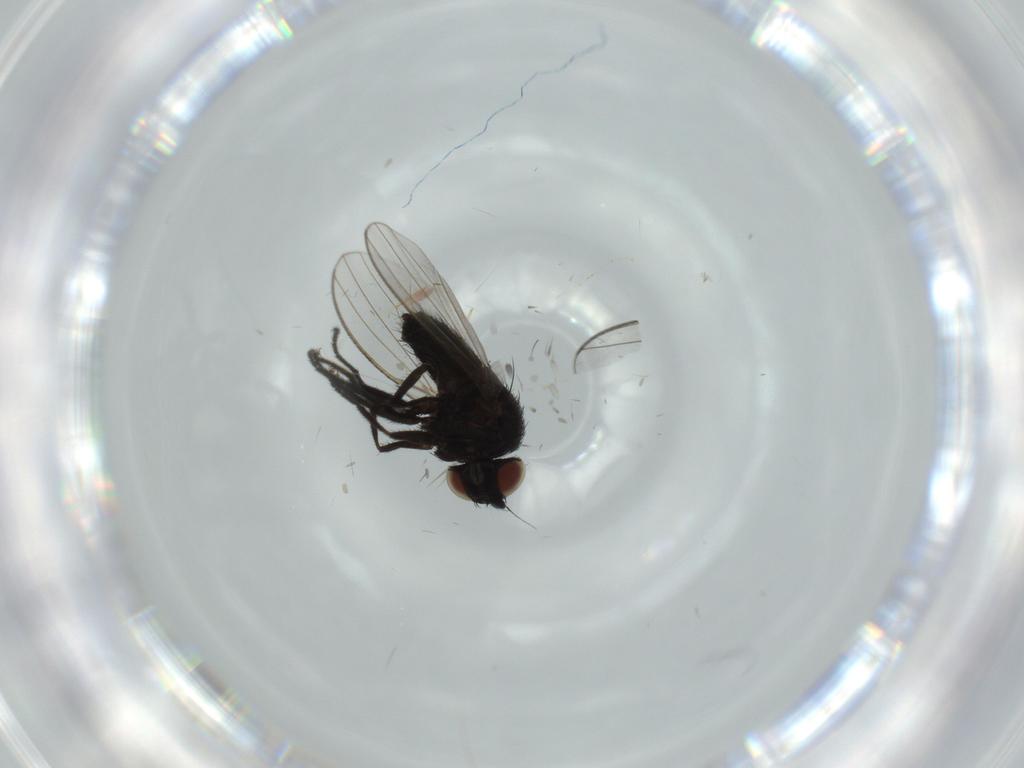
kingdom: Animalia
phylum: Arthropoda
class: Insecta
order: Diptera
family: Cecidomyiidae
